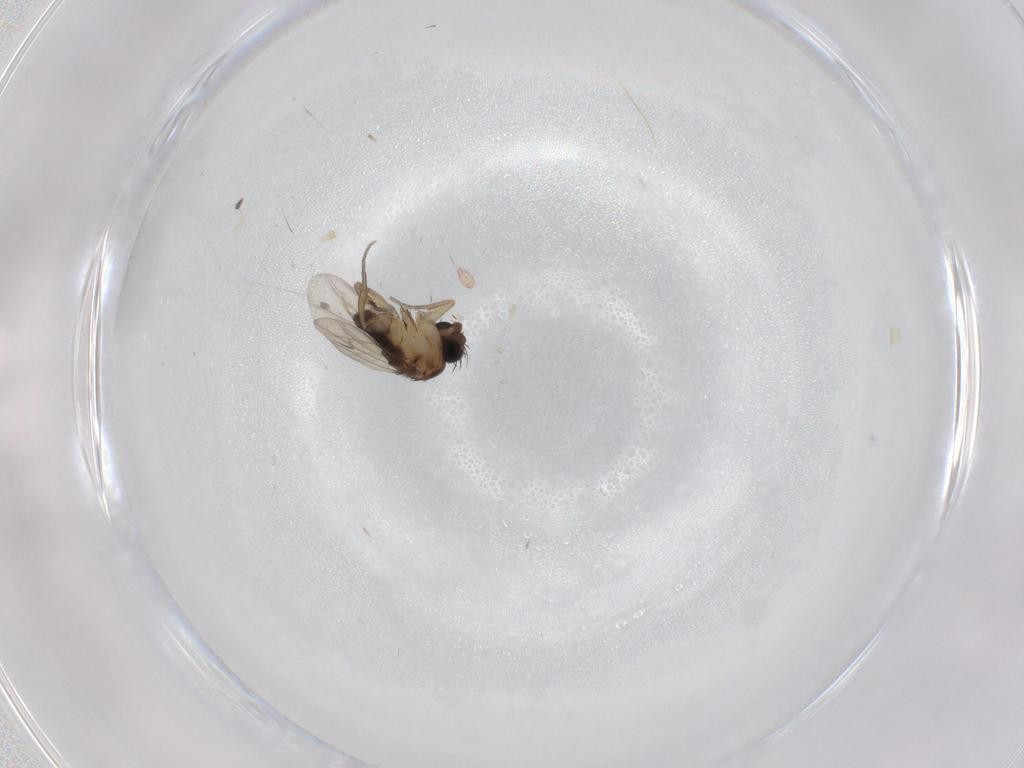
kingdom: Animalia
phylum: Arthropoda
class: Insecta
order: Diptera
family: Phoridae
